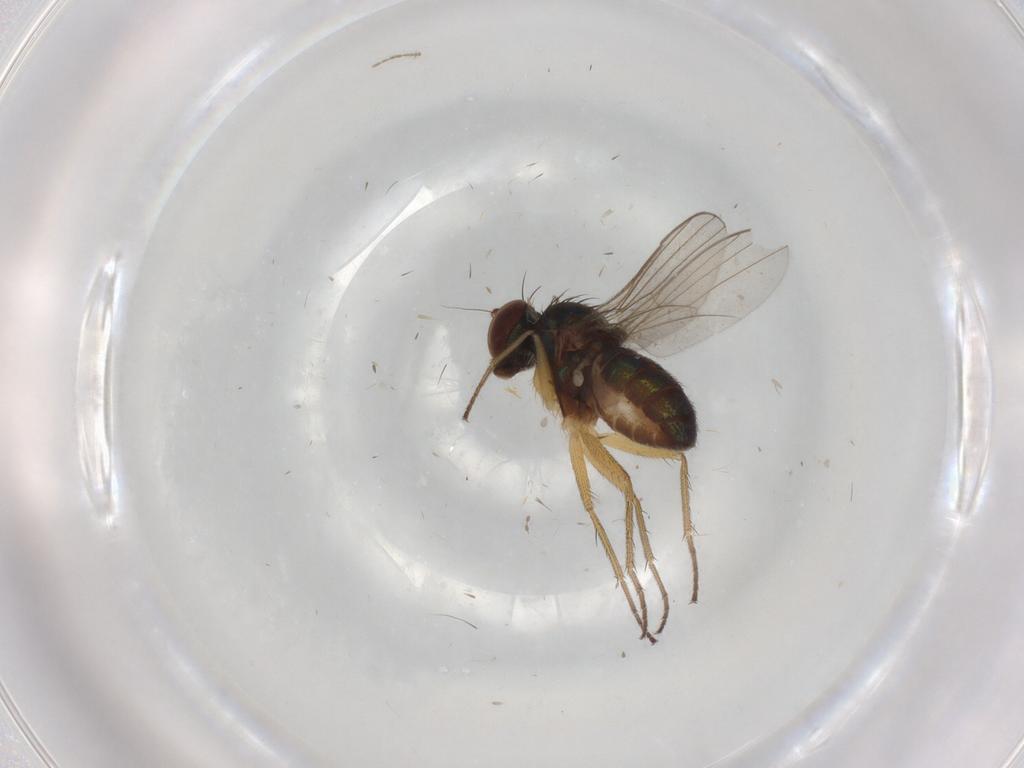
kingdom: Animalia
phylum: Arthropoda
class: Insecta
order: Diptera
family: Dolichopodidae
